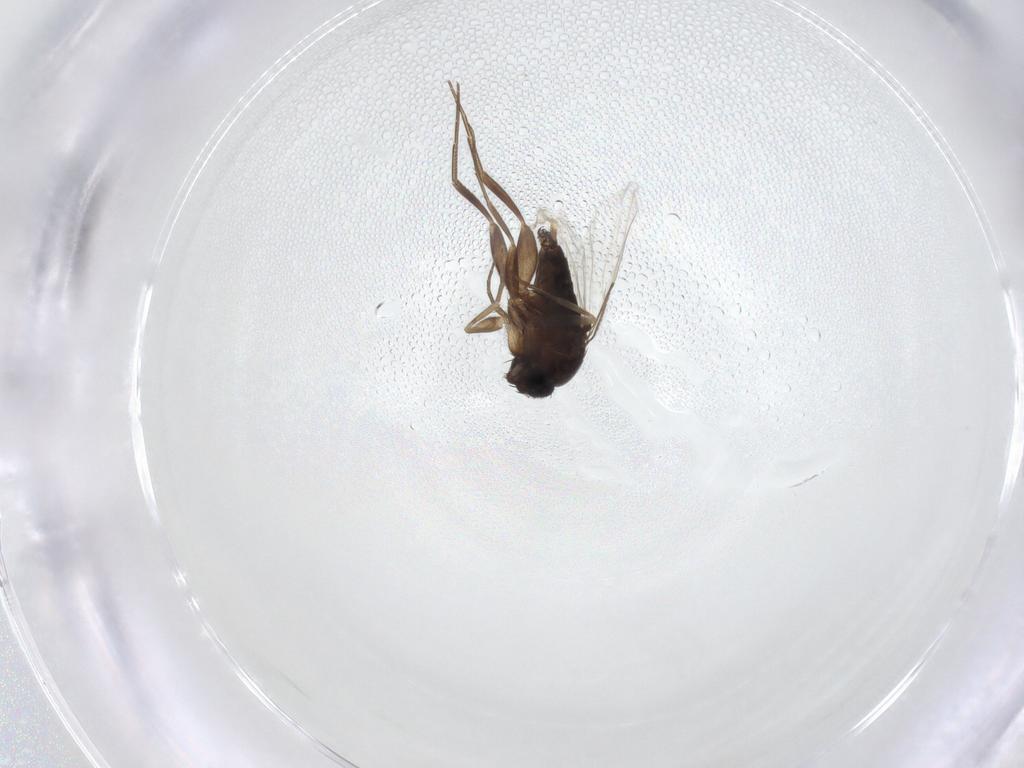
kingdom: Animalia
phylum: Arthropoda
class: Insecta
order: Diptera
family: Phoridae
